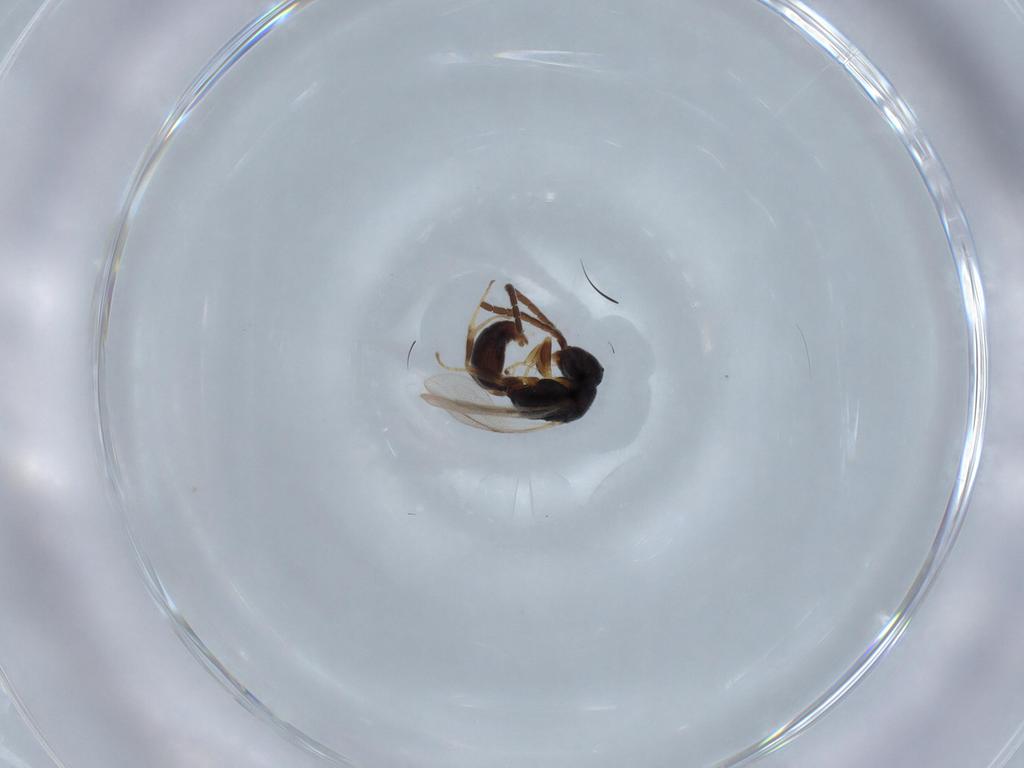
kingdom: Animalia
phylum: Arthropoda
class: Insecta
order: Hymenoptera
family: Bethylidae
